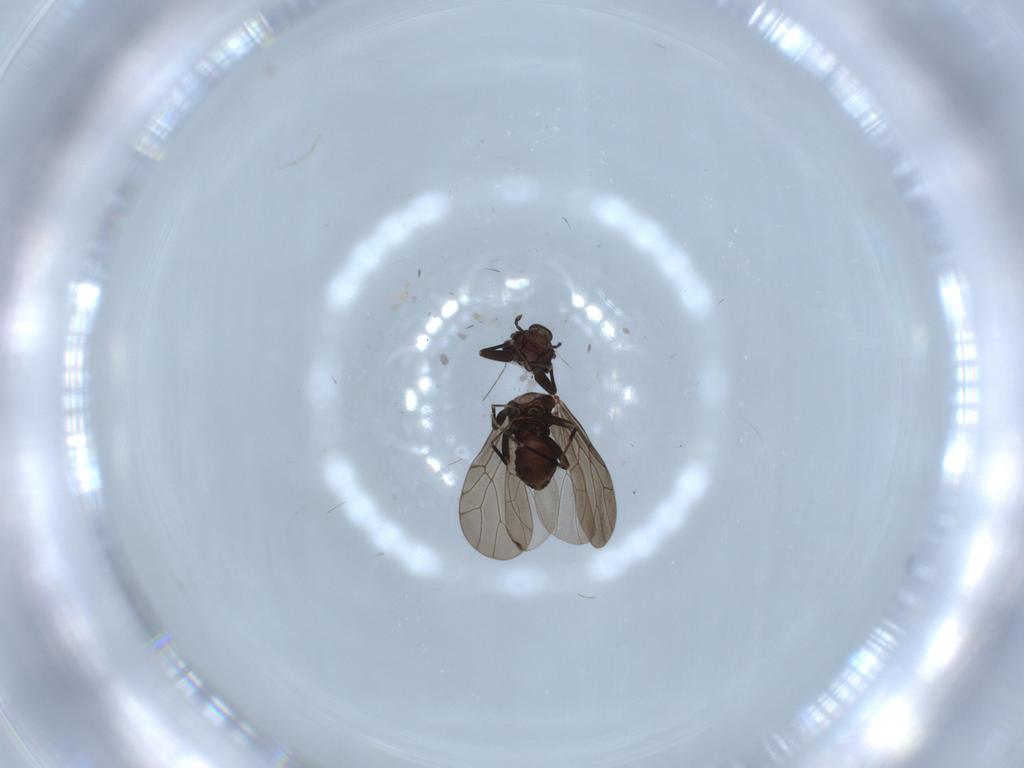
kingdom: Animalia
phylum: Arthropoda
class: Insecta
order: Psocodea
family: Lepidopsocidae
